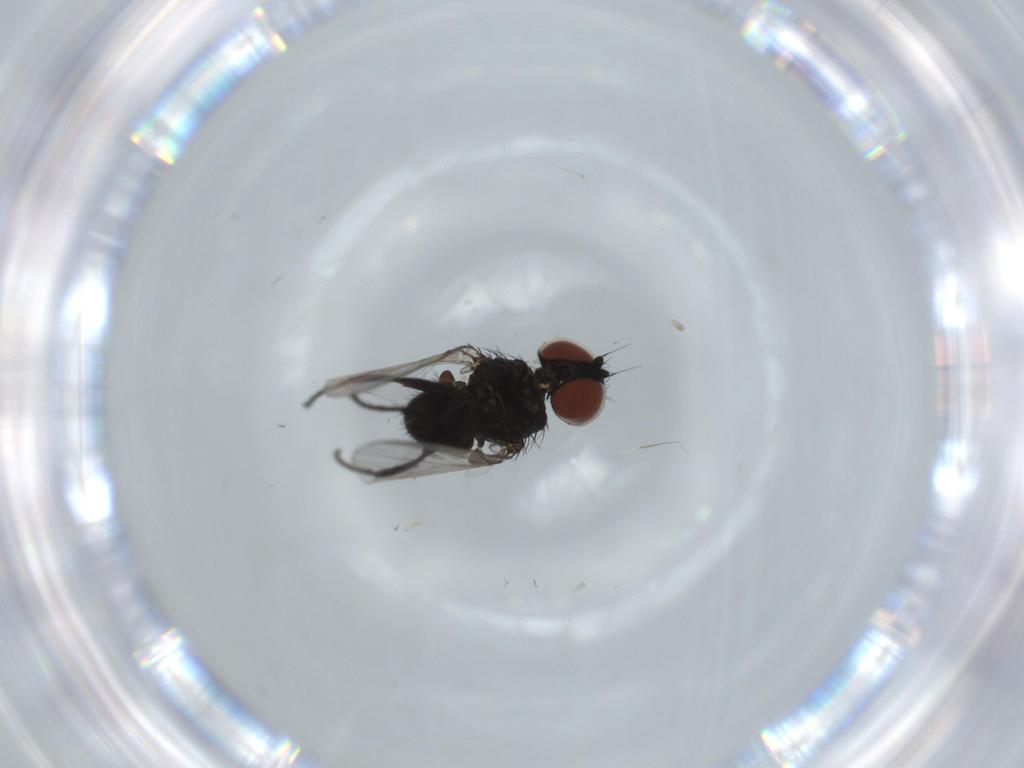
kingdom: Animalia
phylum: Arthropoda
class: Insecta
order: Diptera
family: Milichiidae
